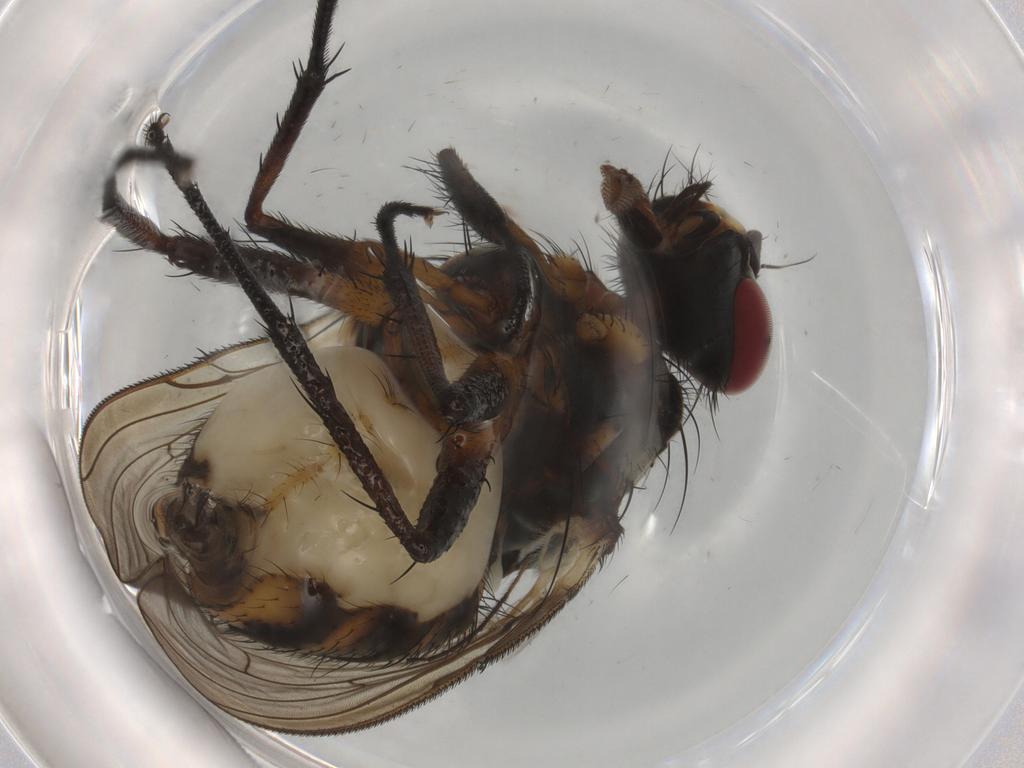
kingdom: Animalia
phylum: Arthropoda
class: Insecta
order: Diptera
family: Anthomyiidae
